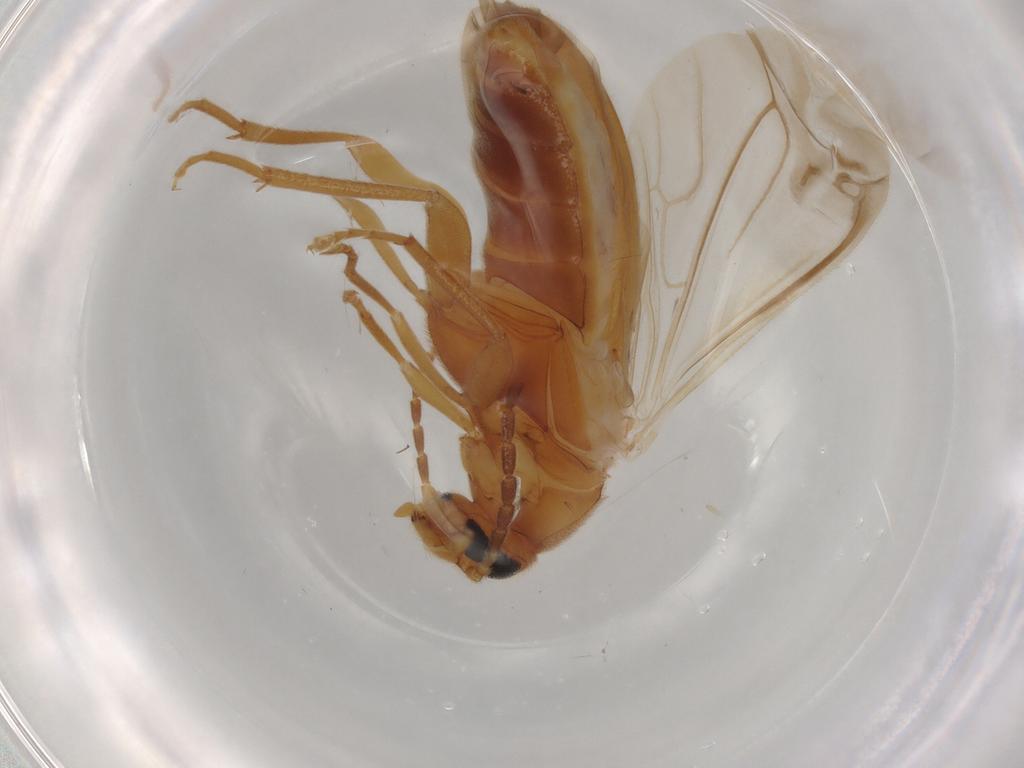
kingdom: Animalia
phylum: Arthropoda
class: Insecta
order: Coleoptera
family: Scraptiidae
